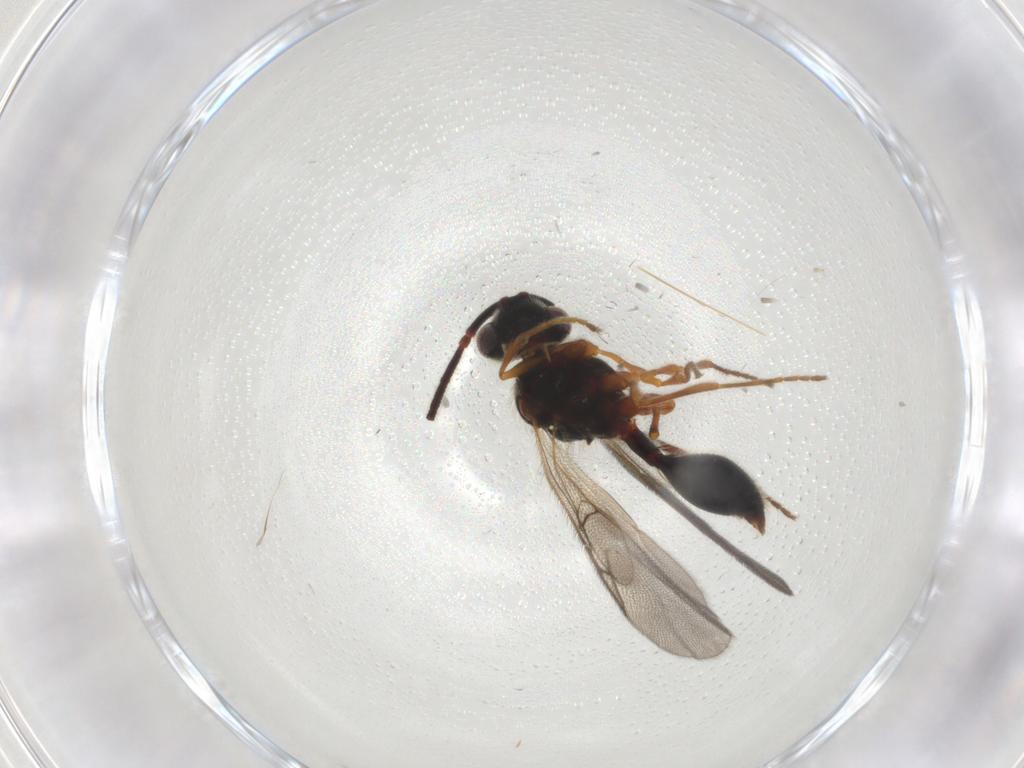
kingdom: Animalia
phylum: Arthropoda
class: Insecta
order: Hymenoptera
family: Diapriidae
